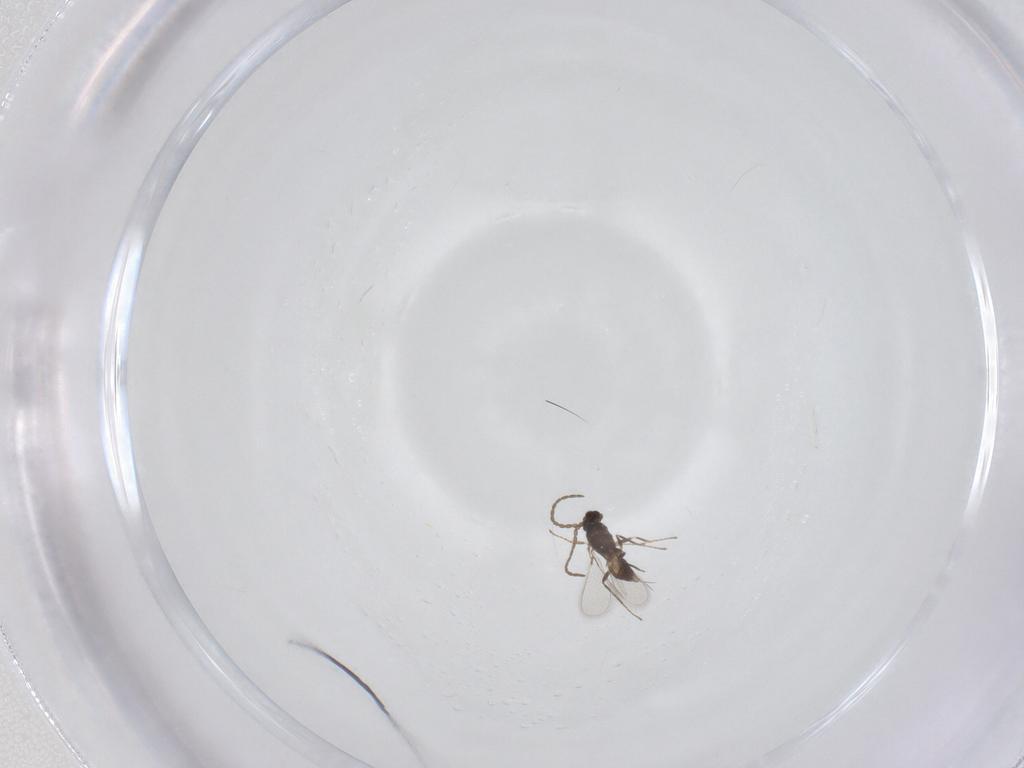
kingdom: Animalia
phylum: Arthropoda
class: Insecta
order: Hymenoptera
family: Mymaridae
